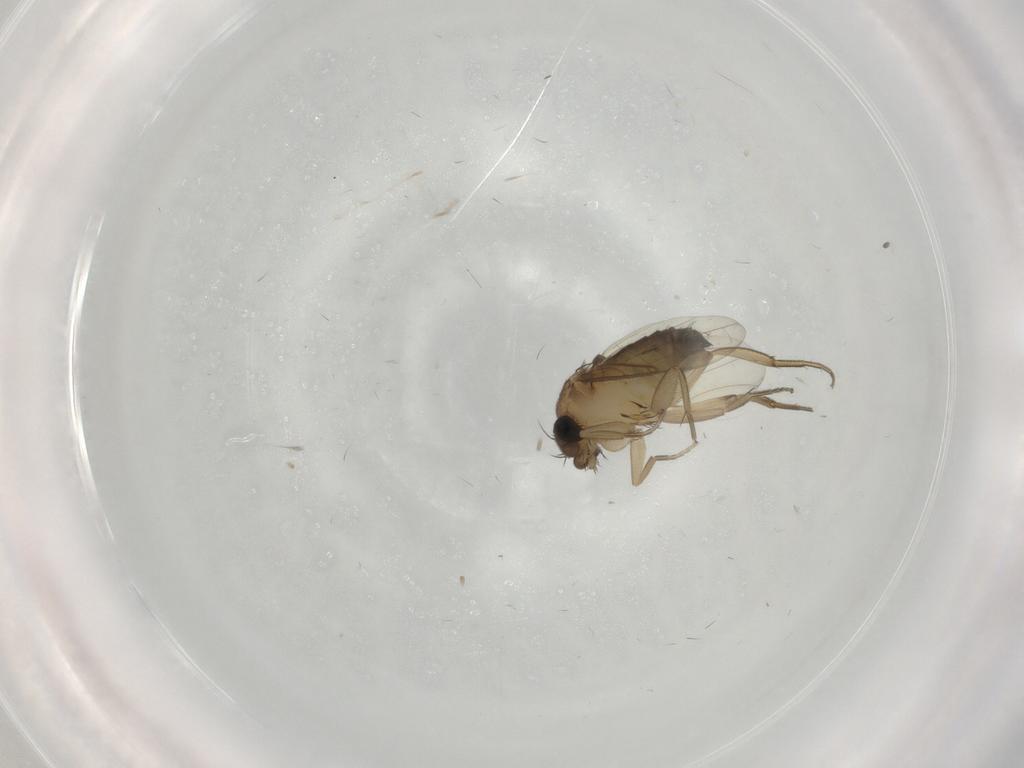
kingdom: Animalia
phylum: Arthropoda
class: Insecta
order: Diptera
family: Phoridae
